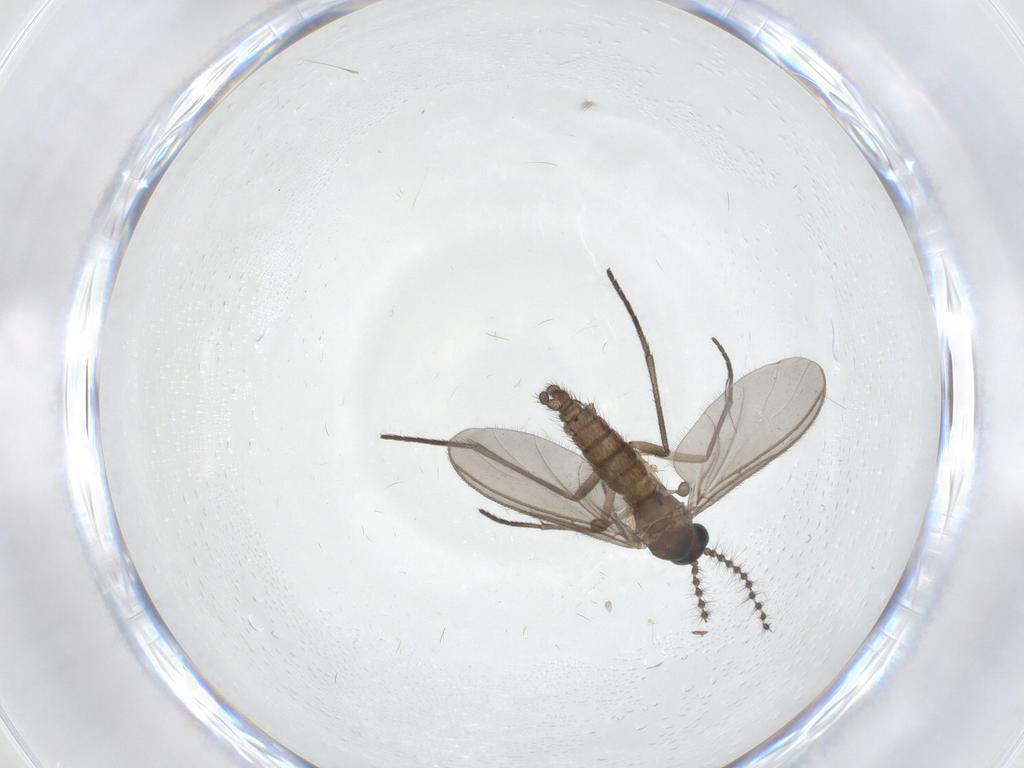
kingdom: Animalia
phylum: Arthropoda
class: Insecta
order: Diptera
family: Sciaridae
